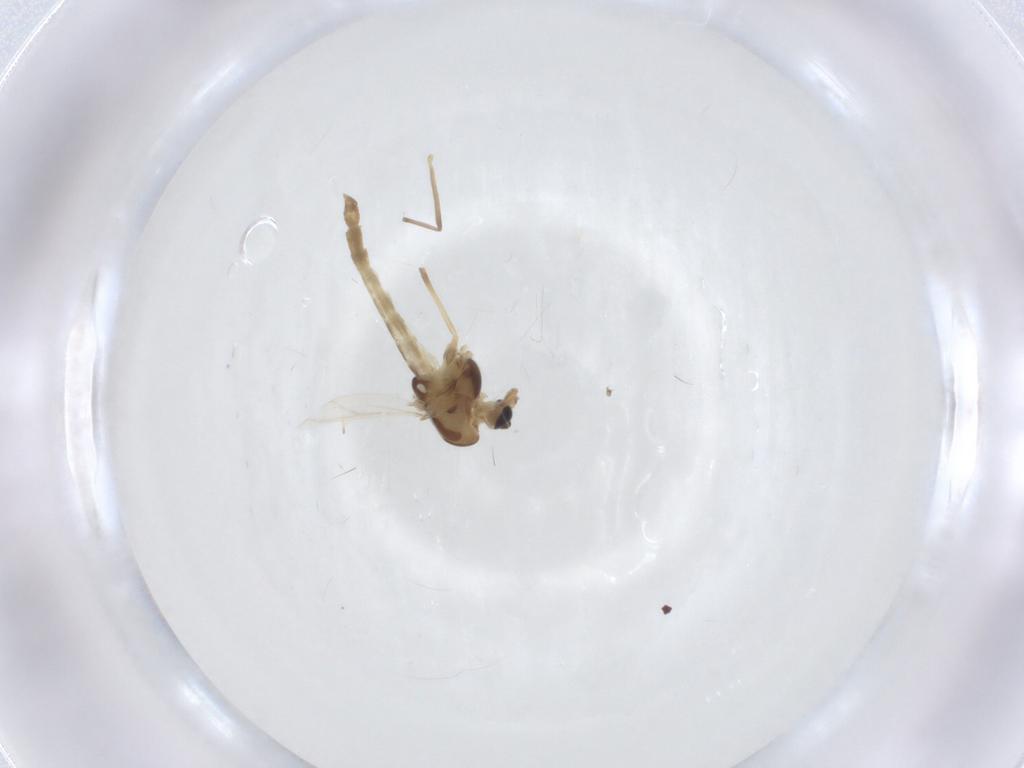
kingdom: Animalia
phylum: Arthropoda
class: Insecta
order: Diptera
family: Chironomidae
